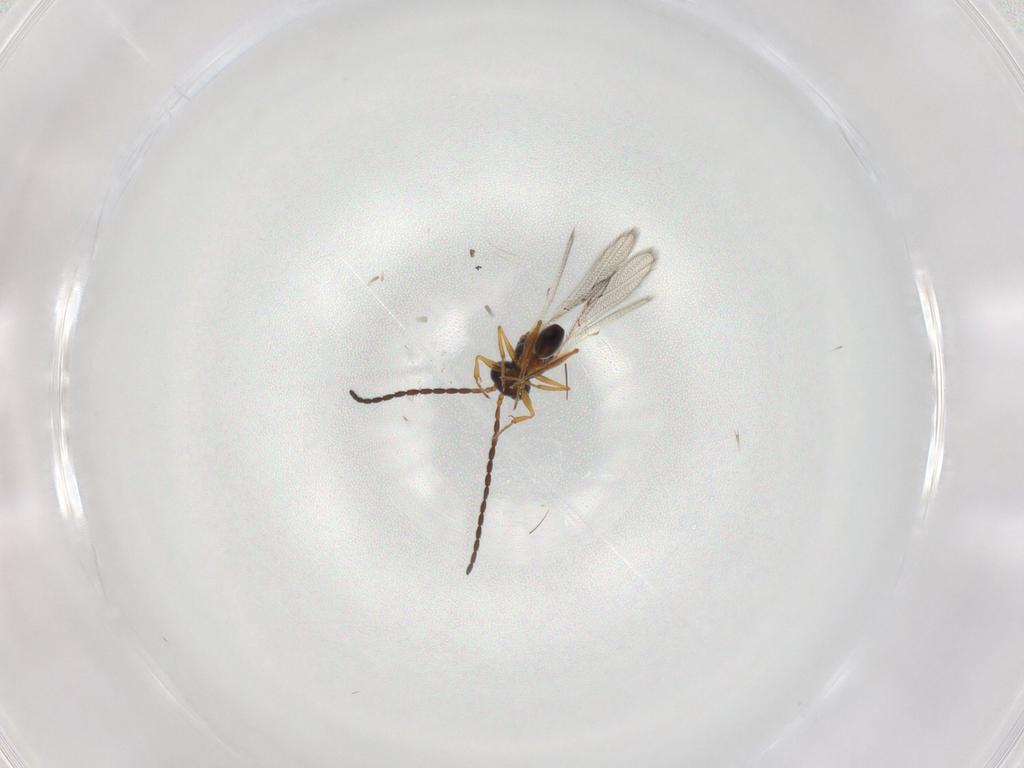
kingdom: Animalia
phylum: Arthropoda
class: Insecta
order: Hymenoptera
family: Figitidae
